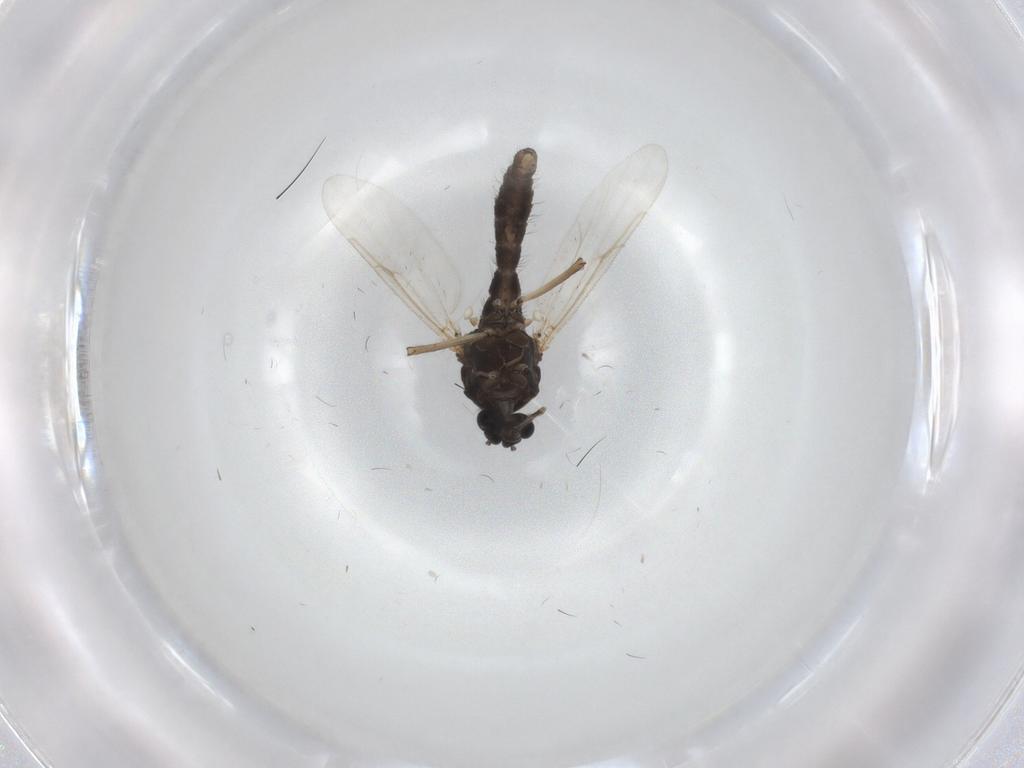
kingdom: Animalia
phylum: Arthropoda
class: Insecta
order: Diptera
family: Ceratopogonidae
